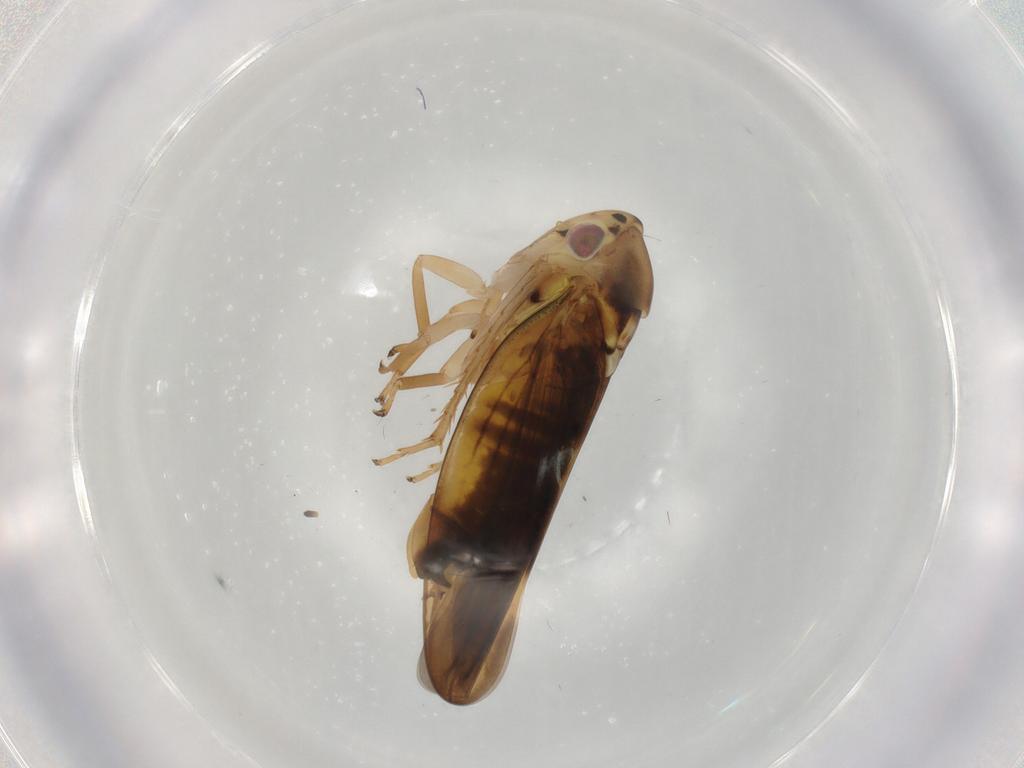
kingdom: Animalia
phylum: Arthropoda
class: Insecta
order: Hemiptera
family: Cicadellidae
